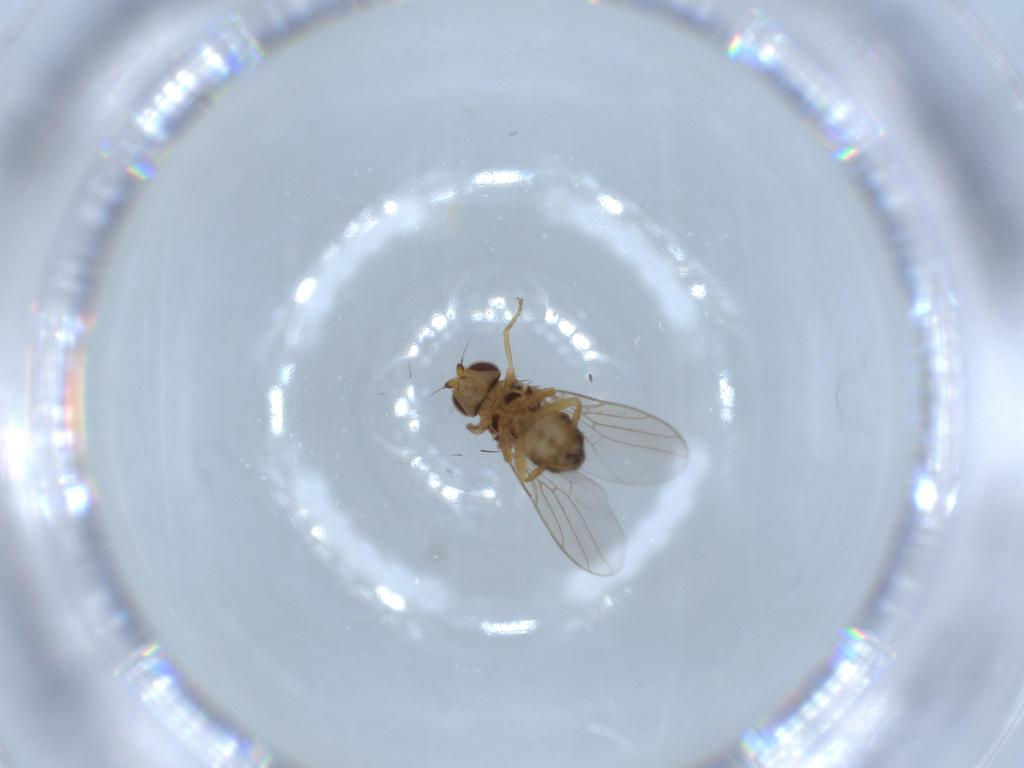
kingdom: Animalia
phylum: Arthropoda
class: Insecta
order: Diptera
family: Chloropidae
